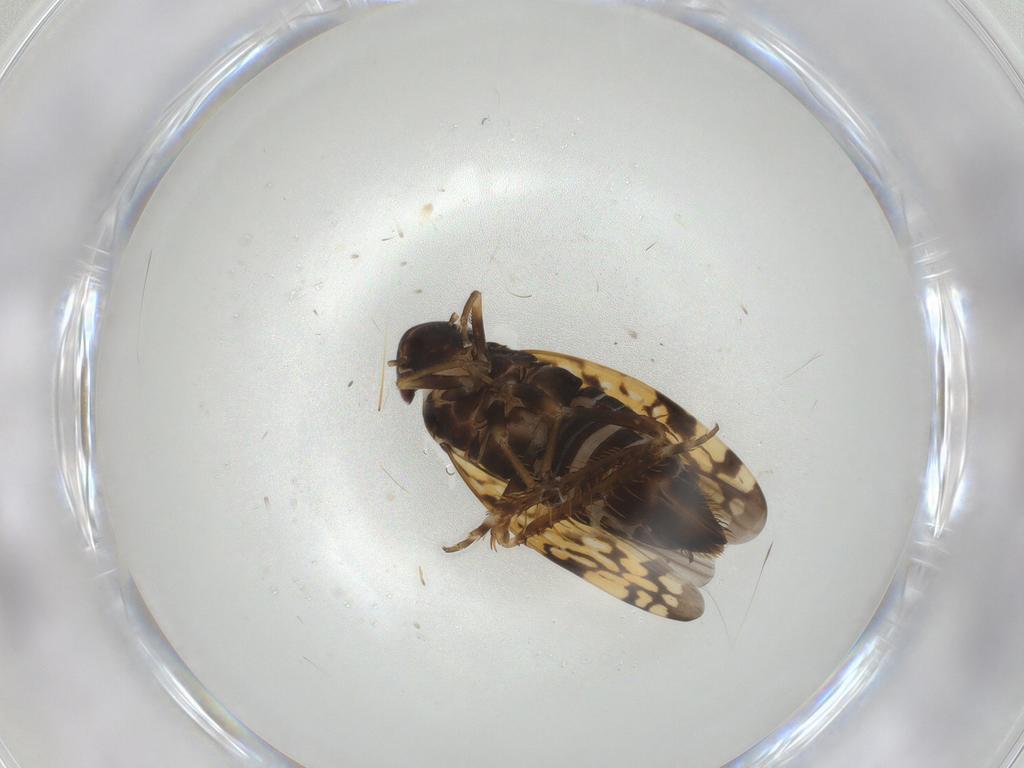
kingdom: Animalia
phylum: Arthropoda
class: Insecta
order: Hemiptera
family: Cicadellidae
